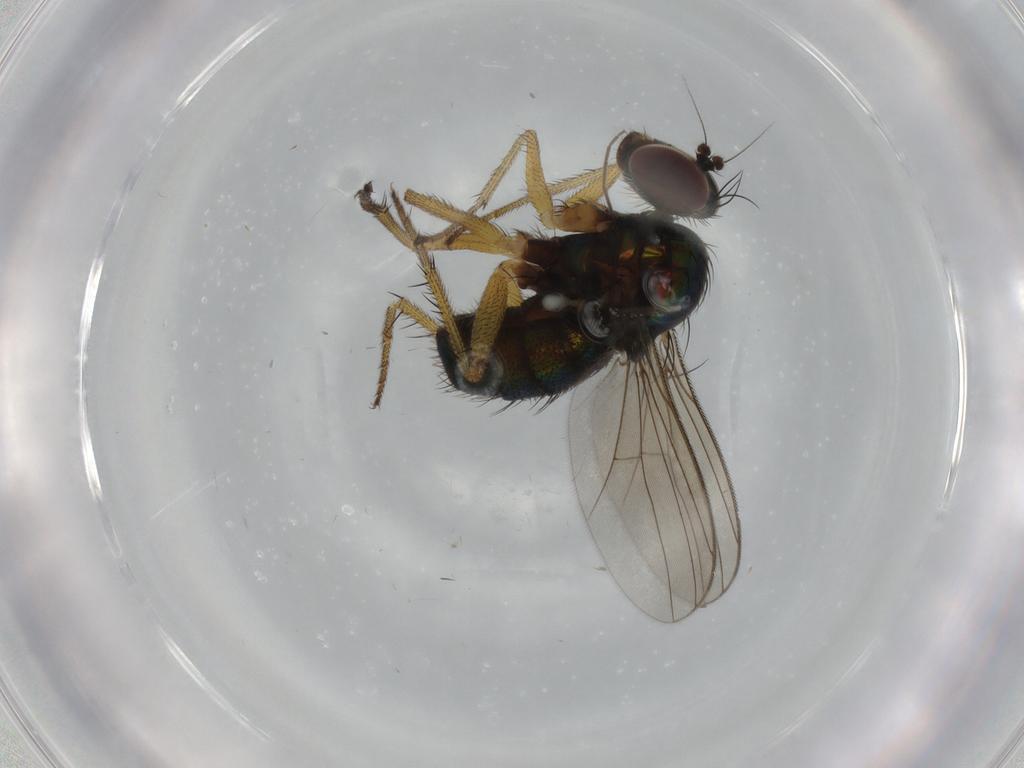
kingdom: Animalia
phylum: Arthropoda
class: Insecta
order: Diptera
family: Dolichopodidae
